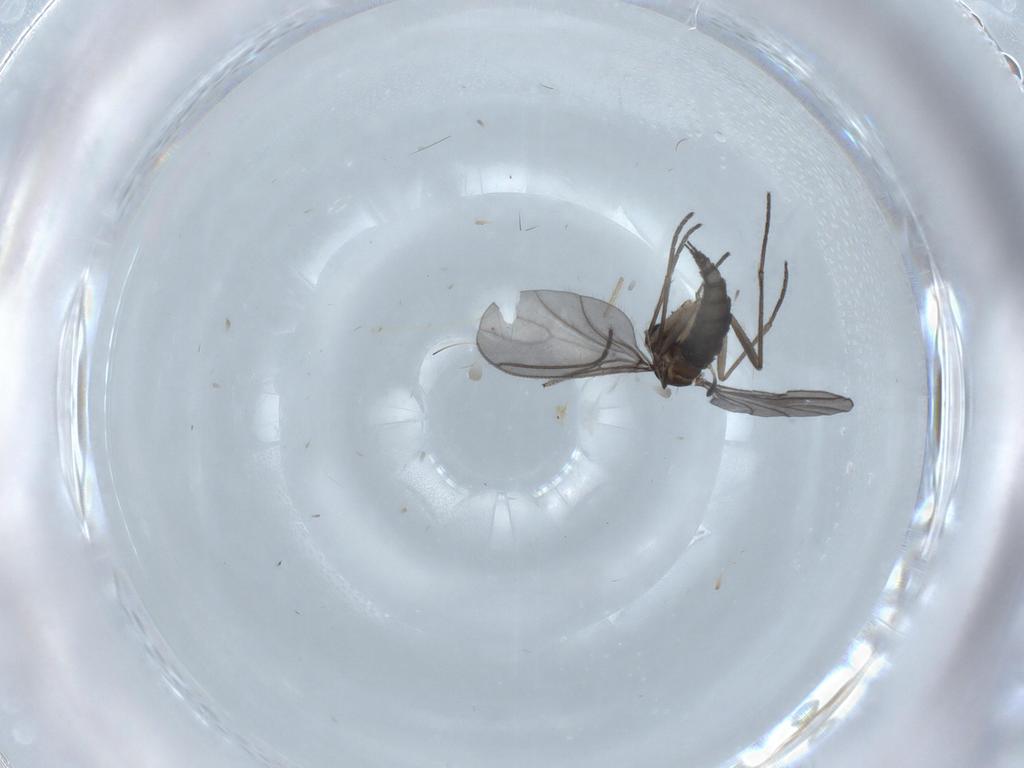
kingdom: Animalia
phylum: Arthropoda
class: Insecta
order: Diptera
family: Sciaridae
